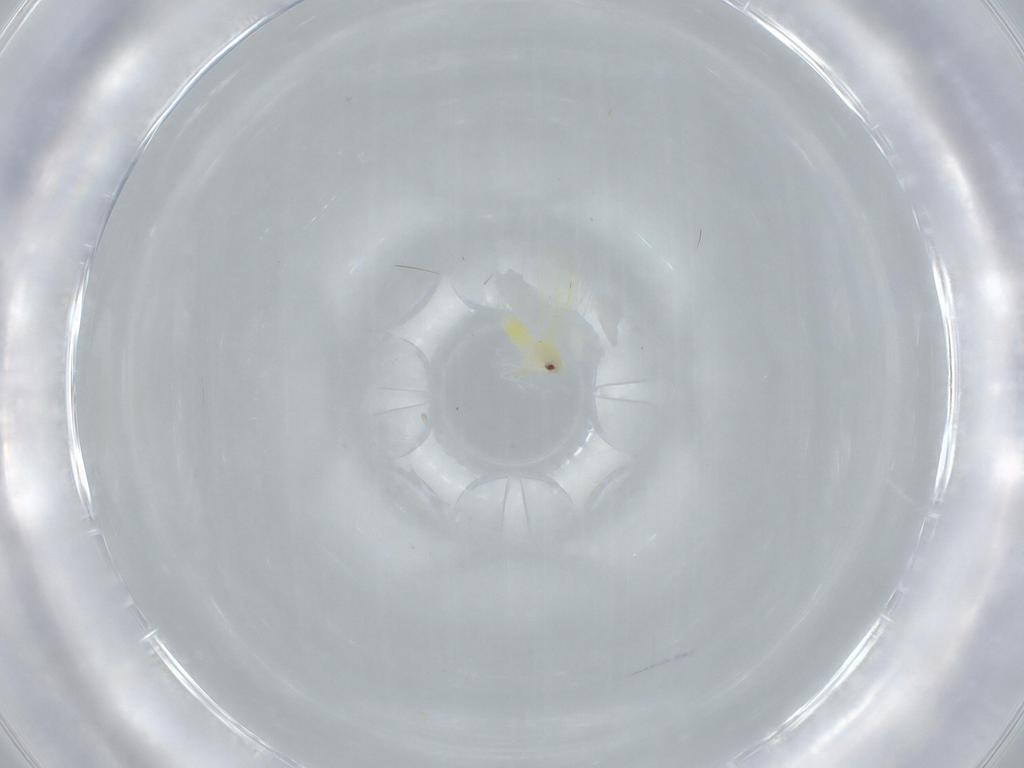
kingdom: Animalia
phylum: Arthropoda
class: Insecta
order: Hemiptera
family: Cicadellidae
